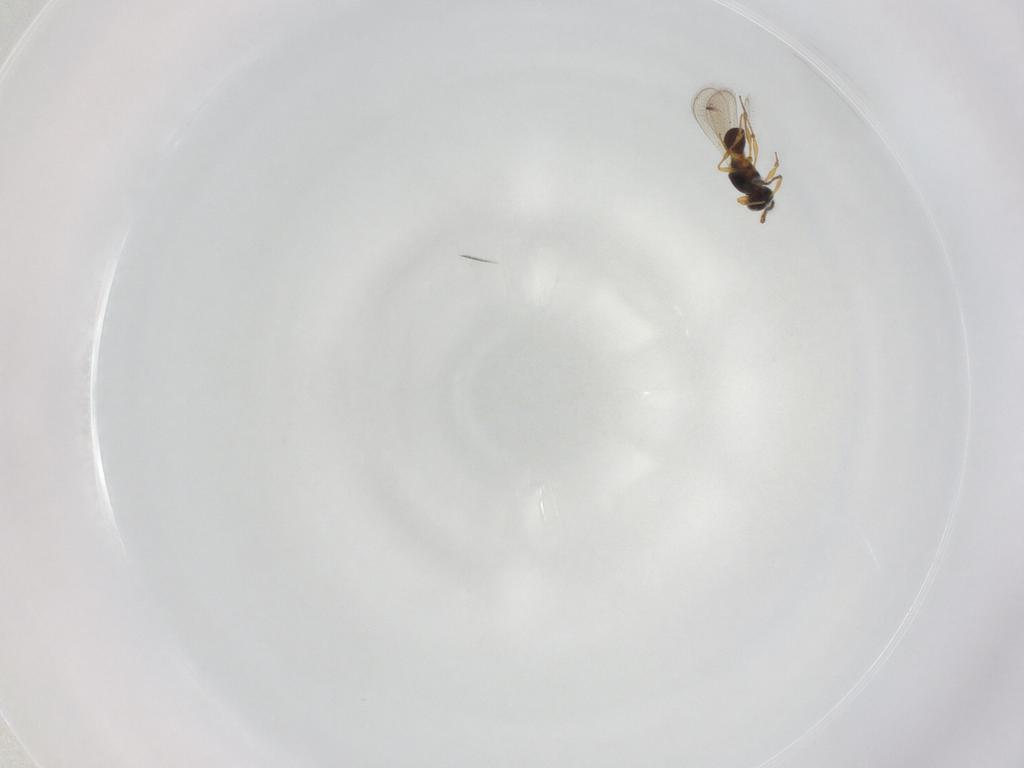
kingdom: Animalia
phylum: Arthropoda
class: Insecta
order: Hymenoptera
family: Platygastridae
